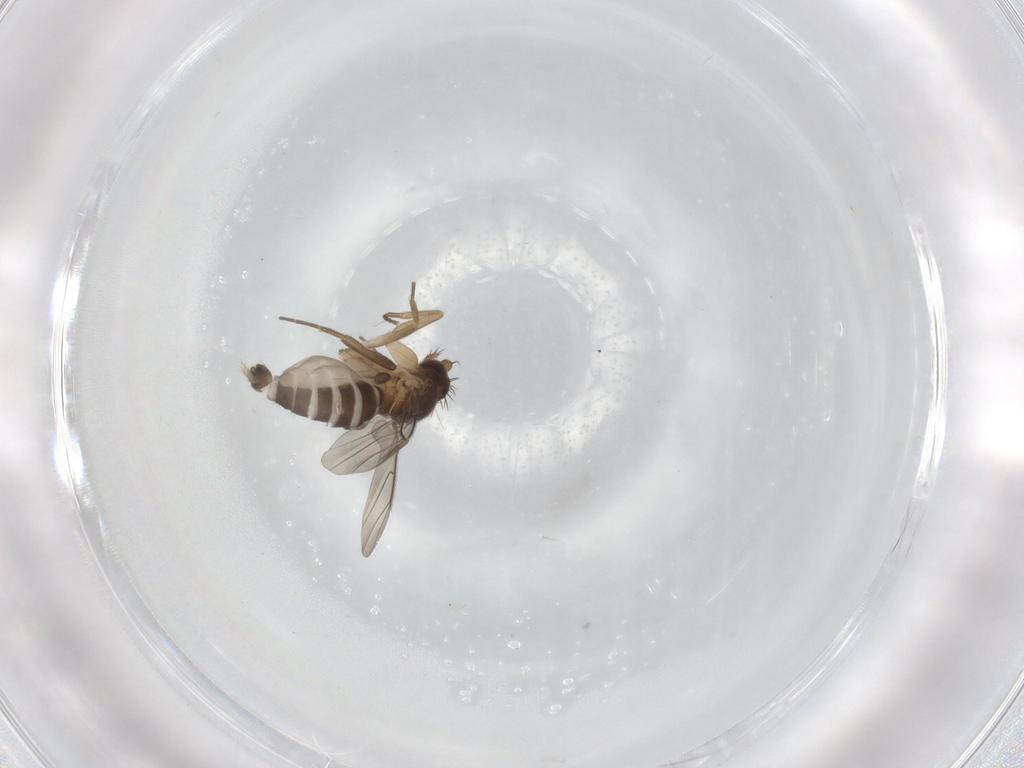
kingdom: Animalia
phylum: Arthropoda
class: Insecta
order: Diptera
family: Phoridae
